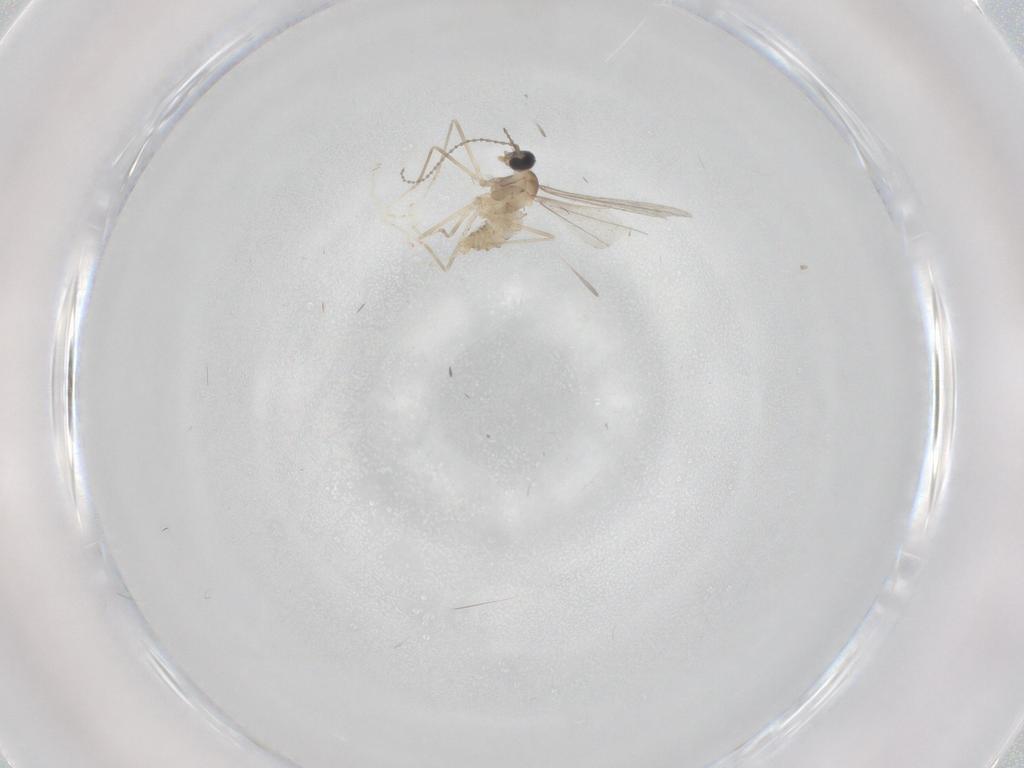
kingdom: Animalia
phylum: Arthropoda
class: Insecta
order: Diptera
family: Cecidomyiidae
